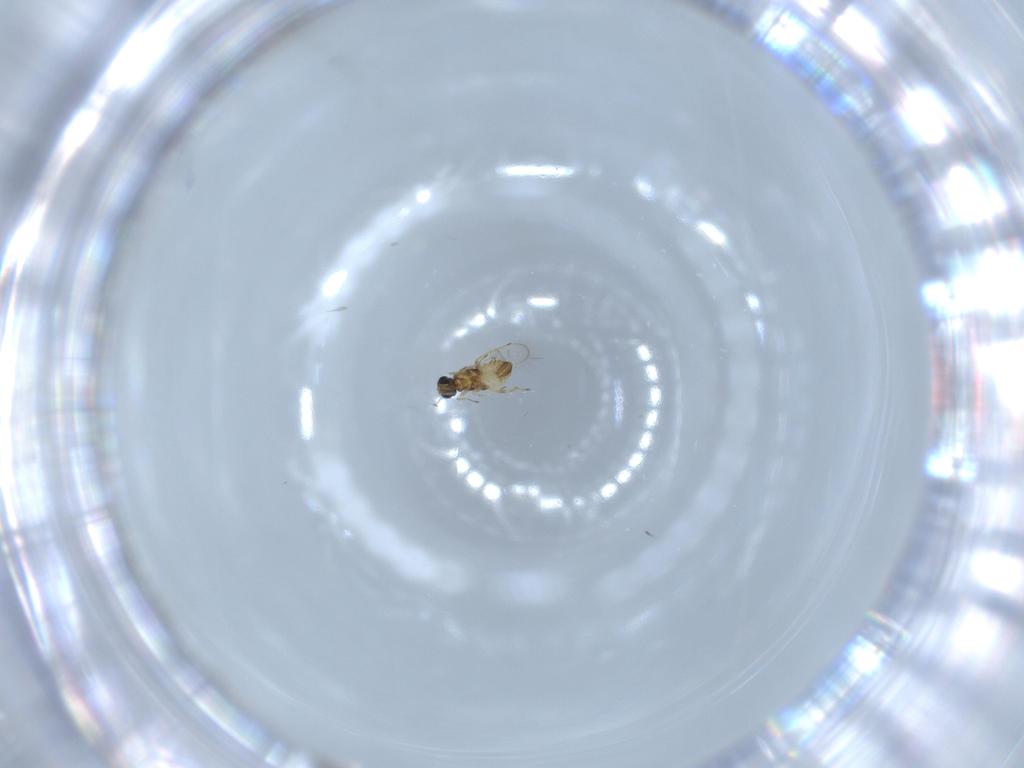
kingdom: Animalia
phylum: Arthropoda
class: Insecta
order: Hymenoptera
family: Trichogrammatidae
